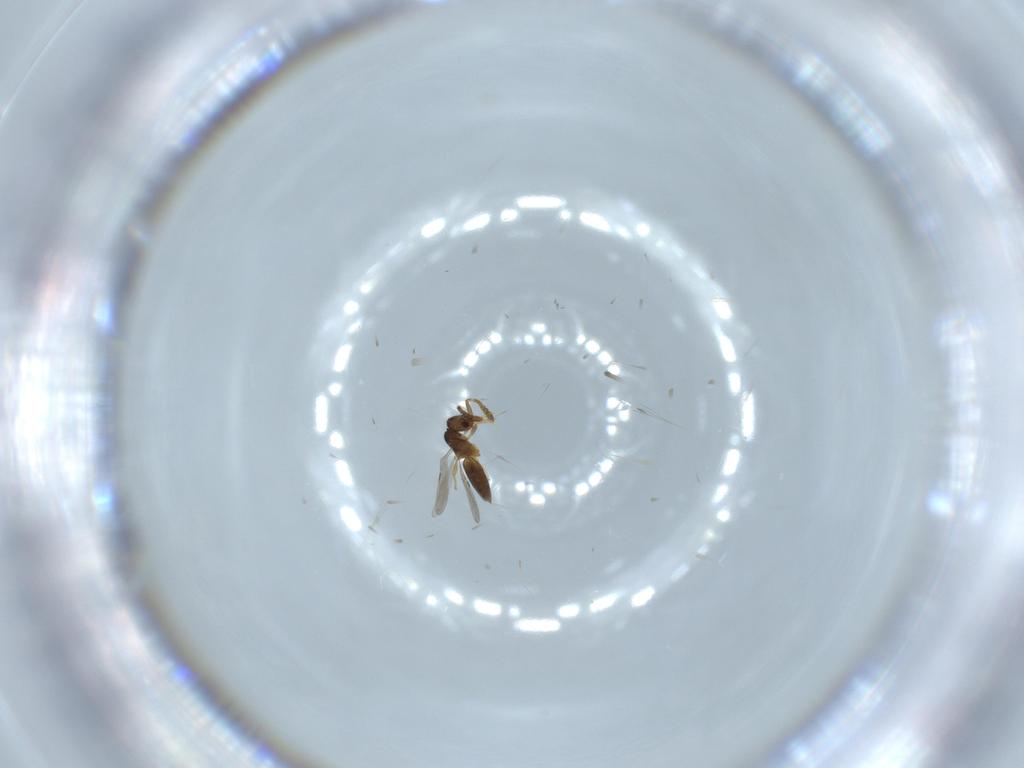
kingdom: Animalia
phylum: Arthropoda
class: Insecta
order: Hymenoptera
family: Ceraphronidae
